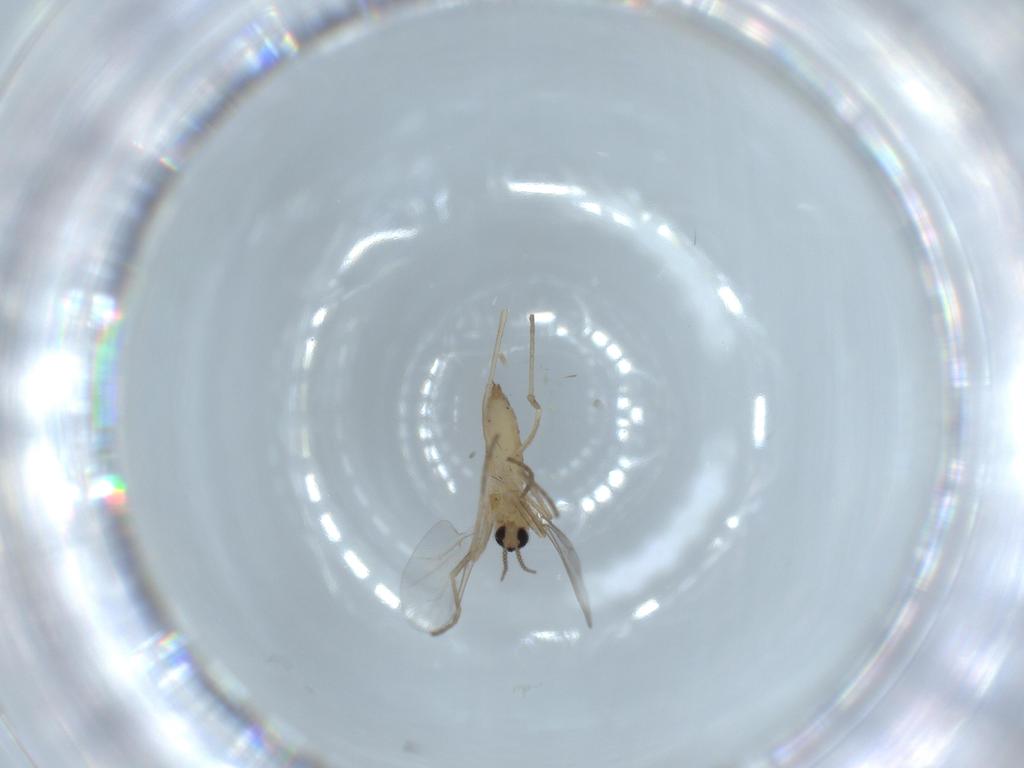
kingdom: Animalia
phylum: Arthropoda
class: Insecta
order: Diptera
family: Cecidomyiidae
